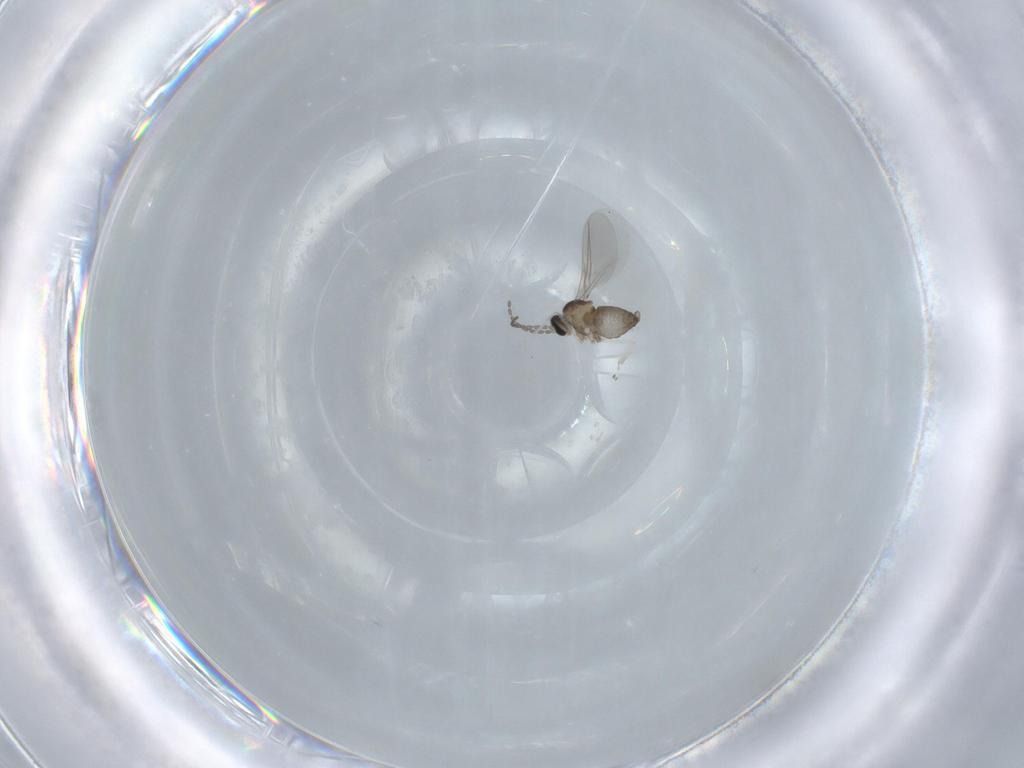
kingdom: Animalia
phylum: Arthropoda
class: Insecta
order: Diptera
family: Cecidomyiidae
